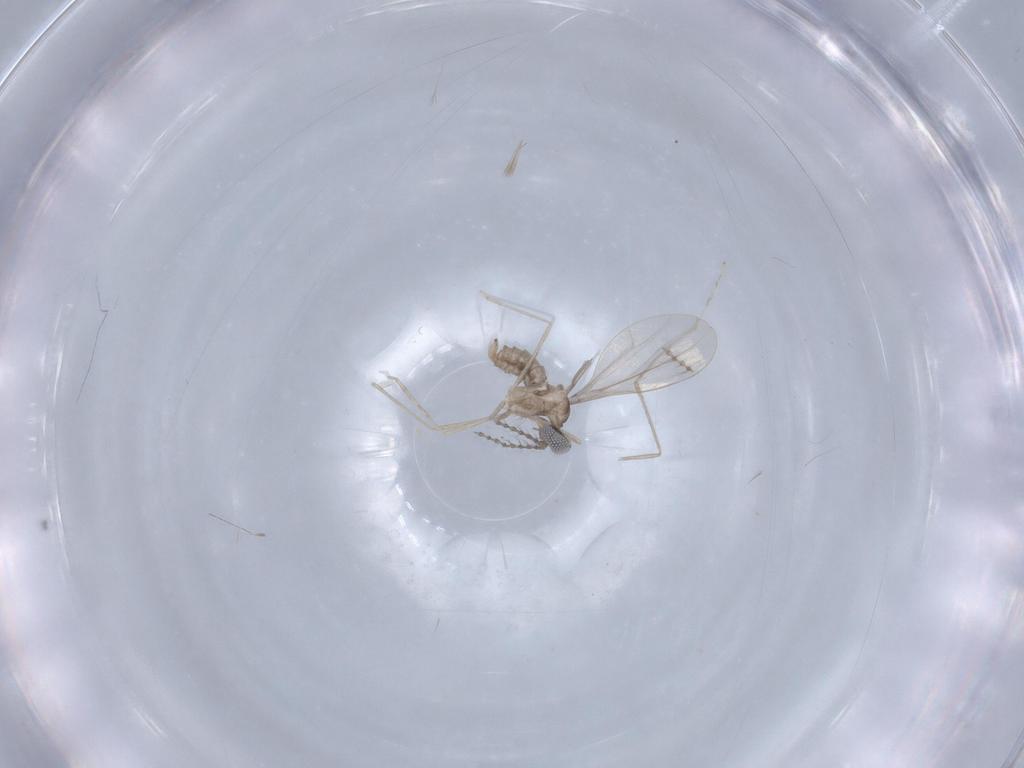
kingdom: Animalia
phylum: Arthropoda
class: Insecta
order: Diptera
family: Cecidomyiidae
